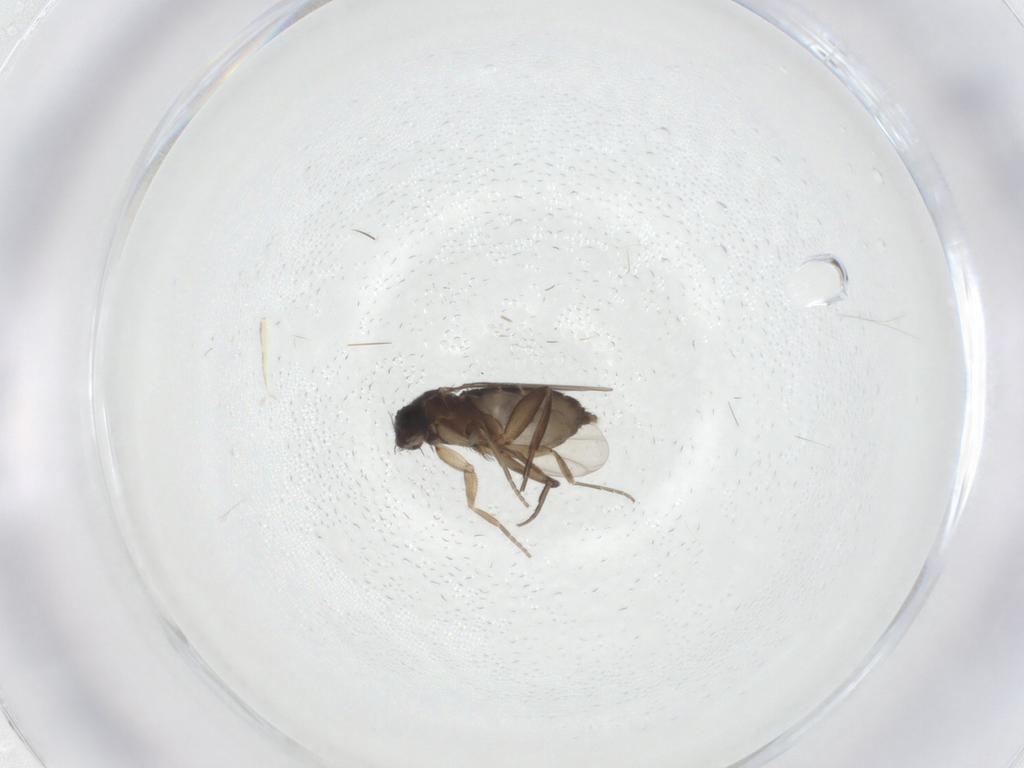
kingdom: Animalia
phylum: Arthropoda
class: Insecta
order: Diptera
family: Phoridae
